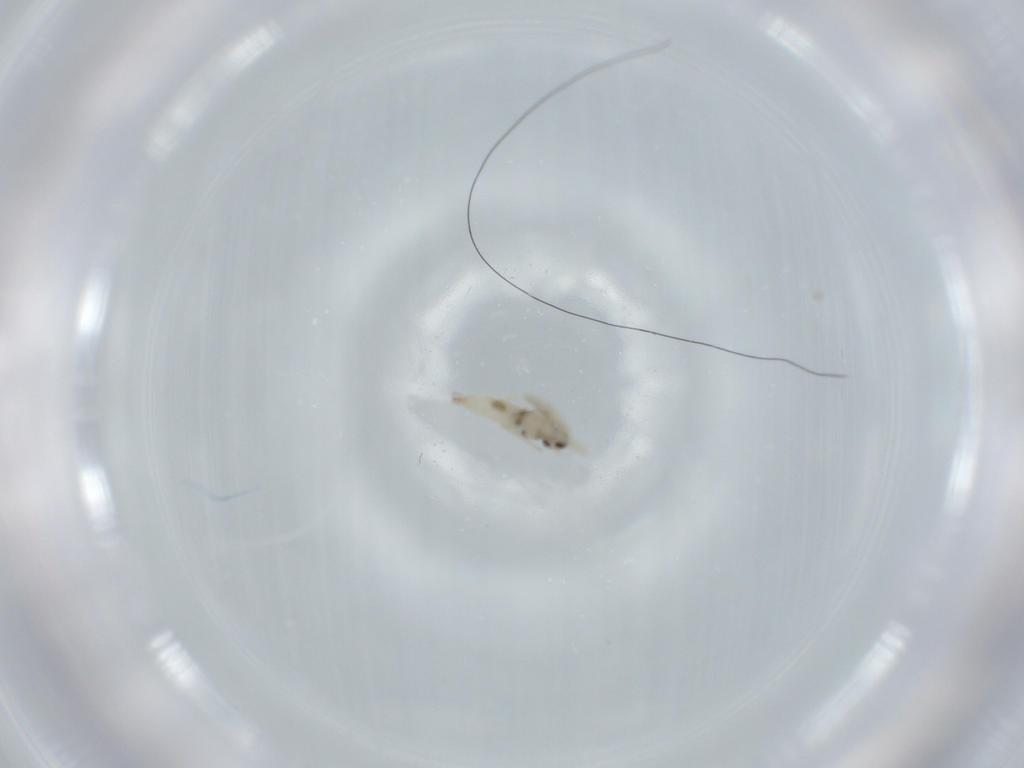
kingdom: Animalia
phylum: Arthropoda
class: Insecta
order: Diptera
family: Cecidomyiidae
